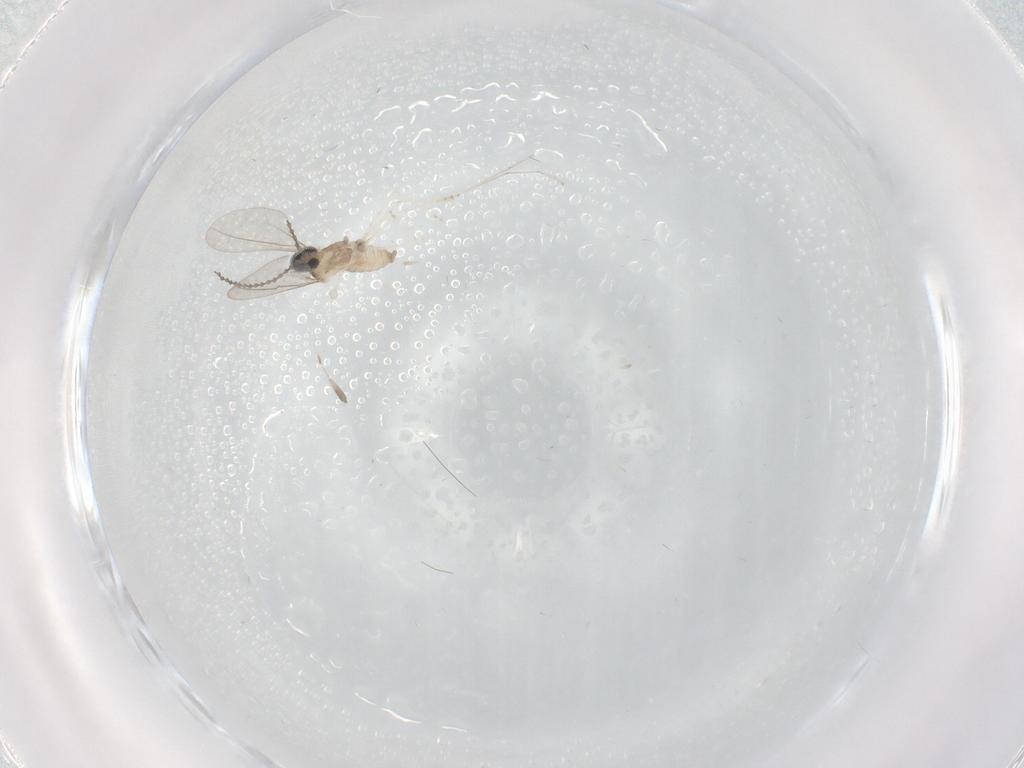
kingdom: Animalia
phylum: Arthropoda
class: Insecta
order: Diptera
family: Cecidomyiidae
